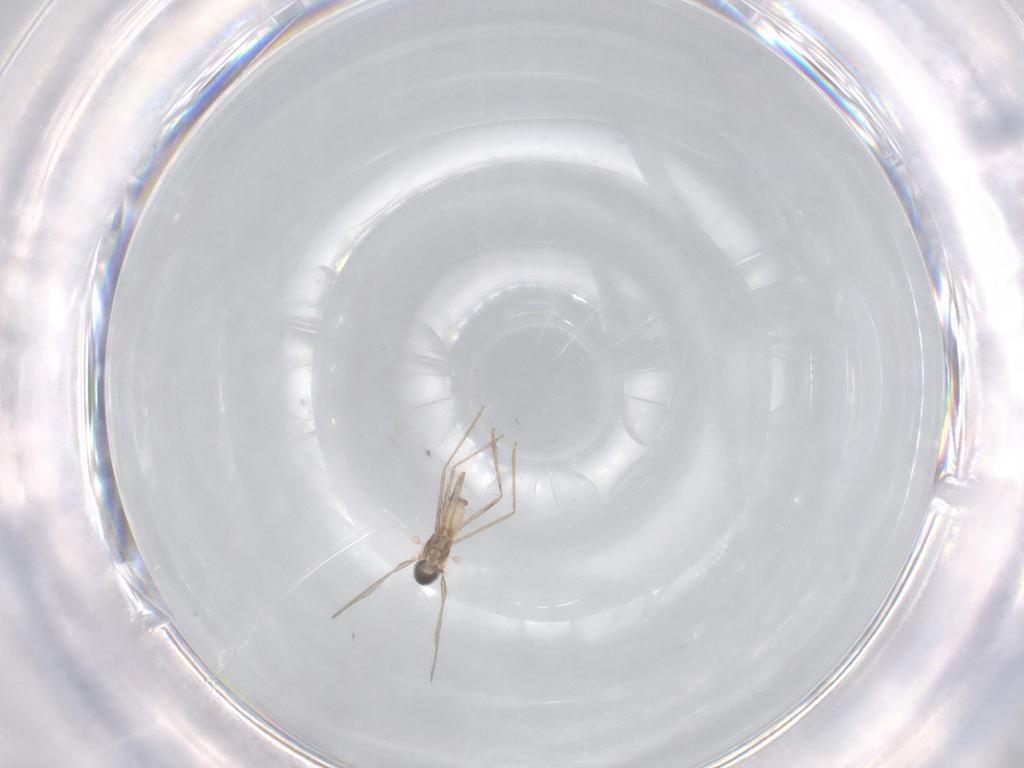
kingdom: Animalia
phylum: Arthropoda
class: Insecta
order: Diptera
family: Cecidomyiidae
